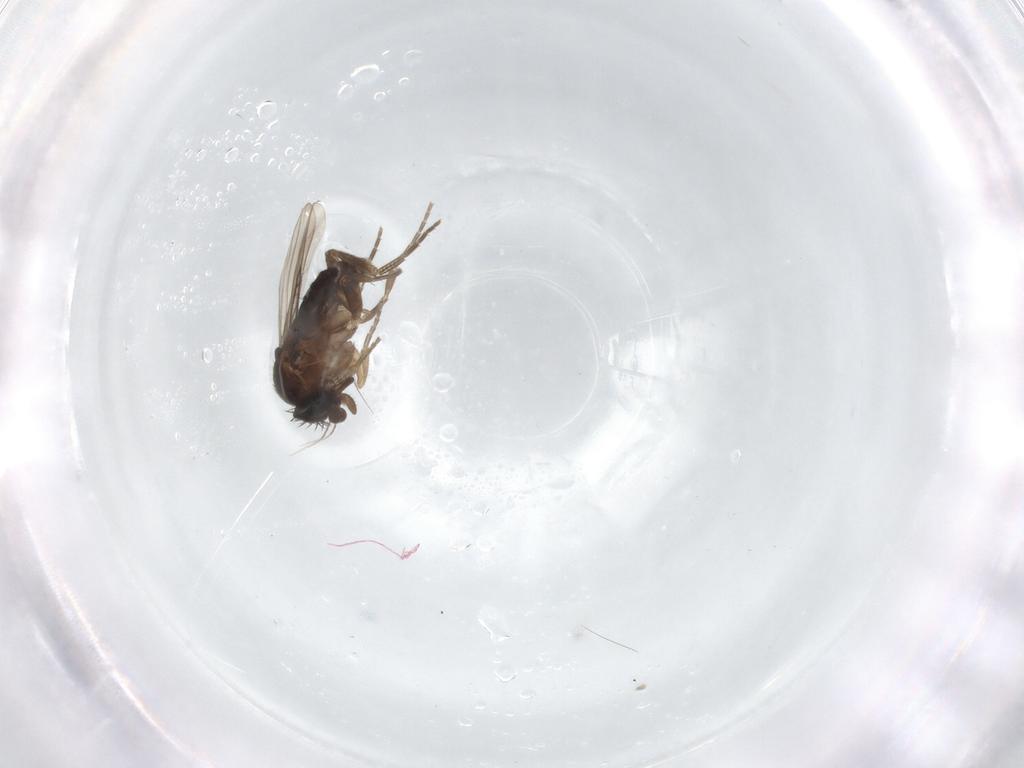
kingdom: Animalia
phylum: Arthropoda
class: Insecta
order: Diptera
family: Phoridae
